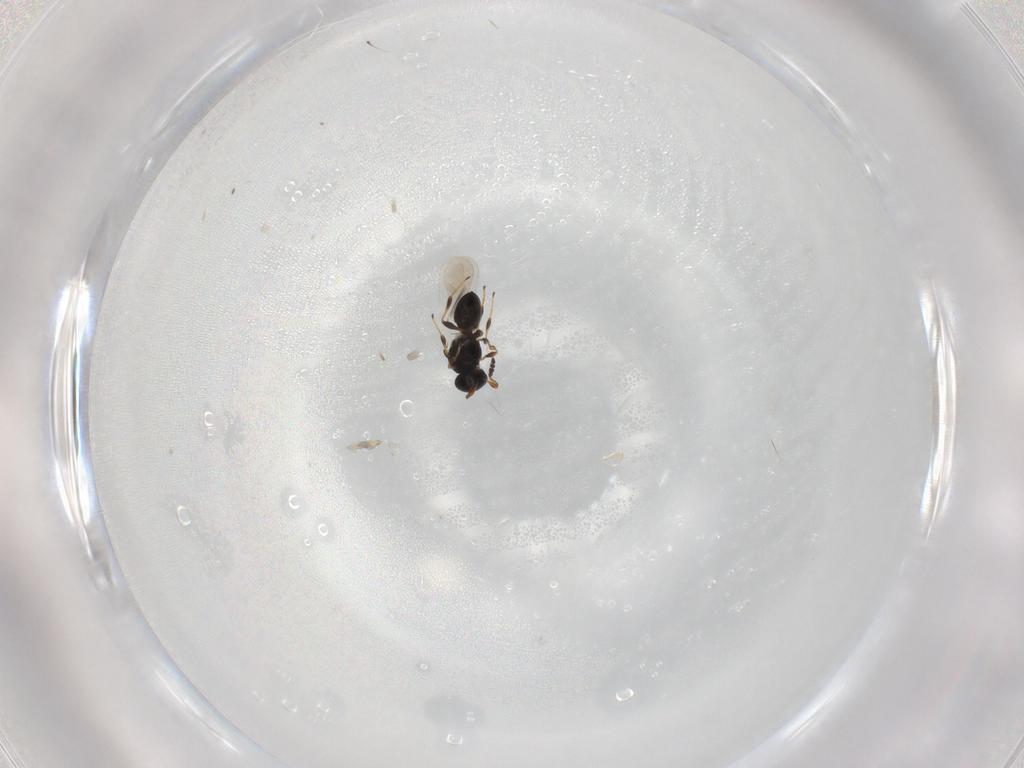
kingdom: Animalia
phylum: Arthropoda
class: Insecta
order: Hymenoptera
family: Platygastridae
